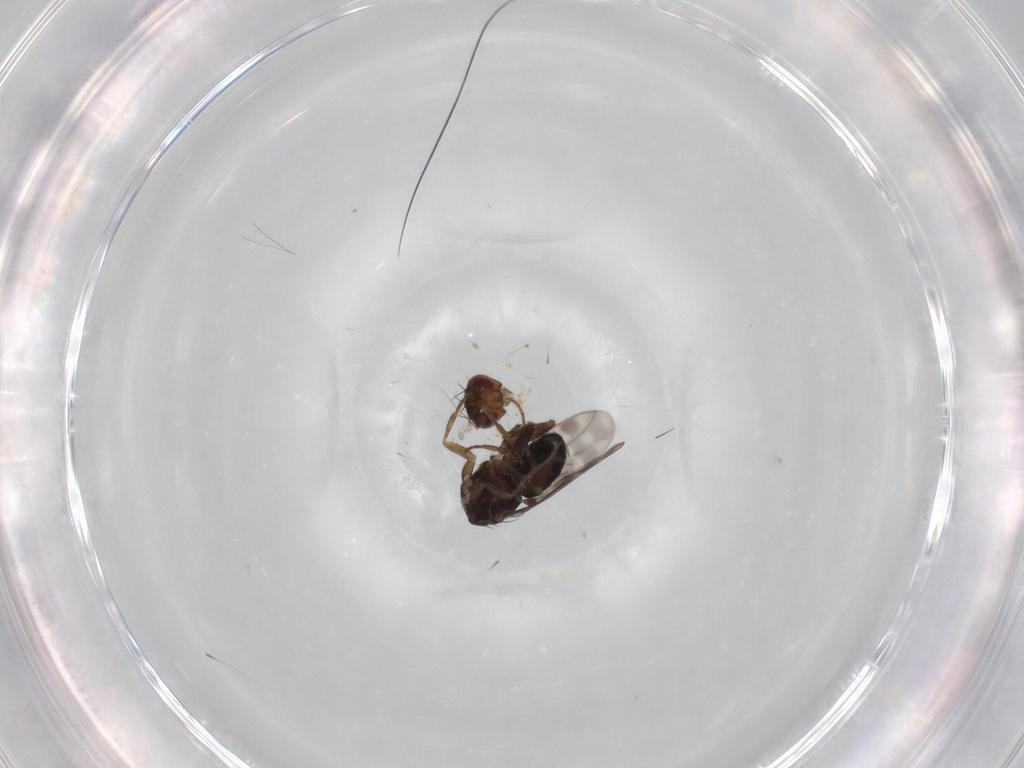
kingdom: Animalia
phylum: Arthropoda
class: Insecta
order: Diptera
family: Sphaeroceridae
